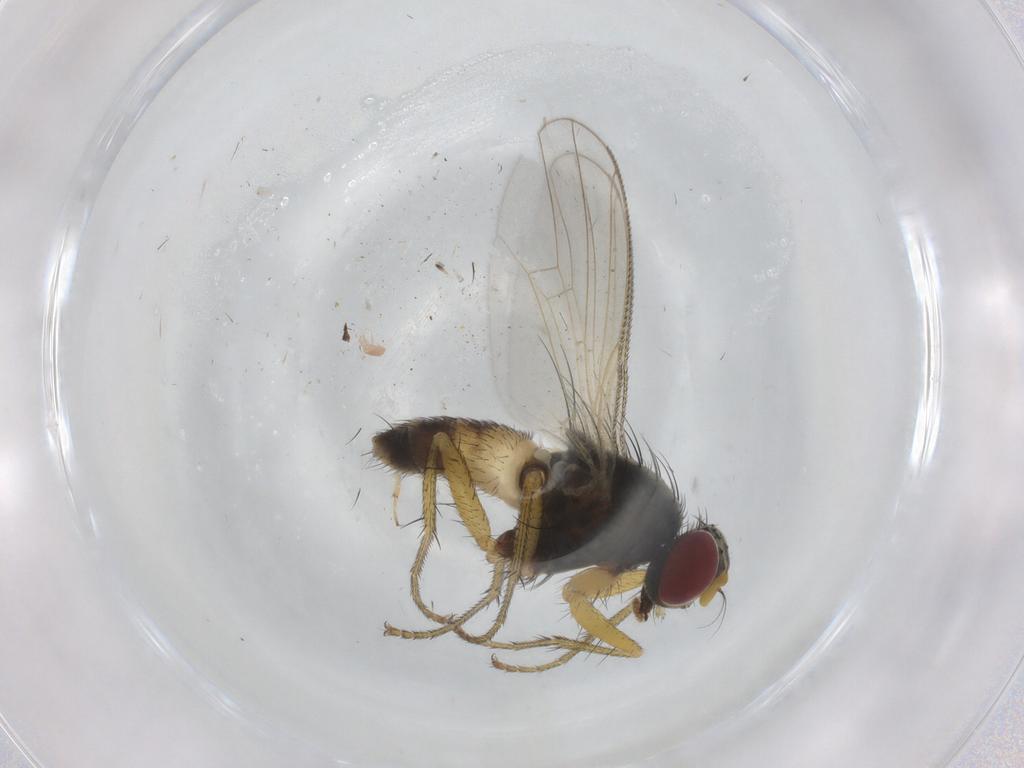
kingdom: Animalia
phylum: Arthropoda
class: Insecta
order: Diptera
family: Muscidae
